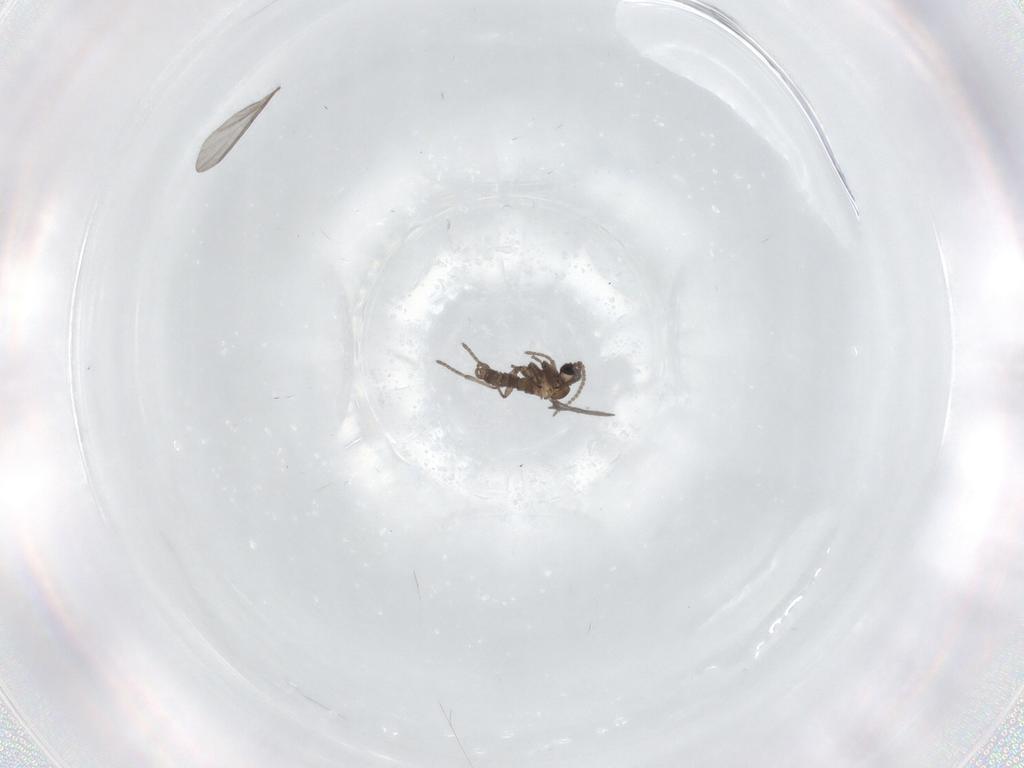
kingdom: Animalia
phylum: Arthropoda
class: Insecta
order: Diptera
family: Sciaridae
